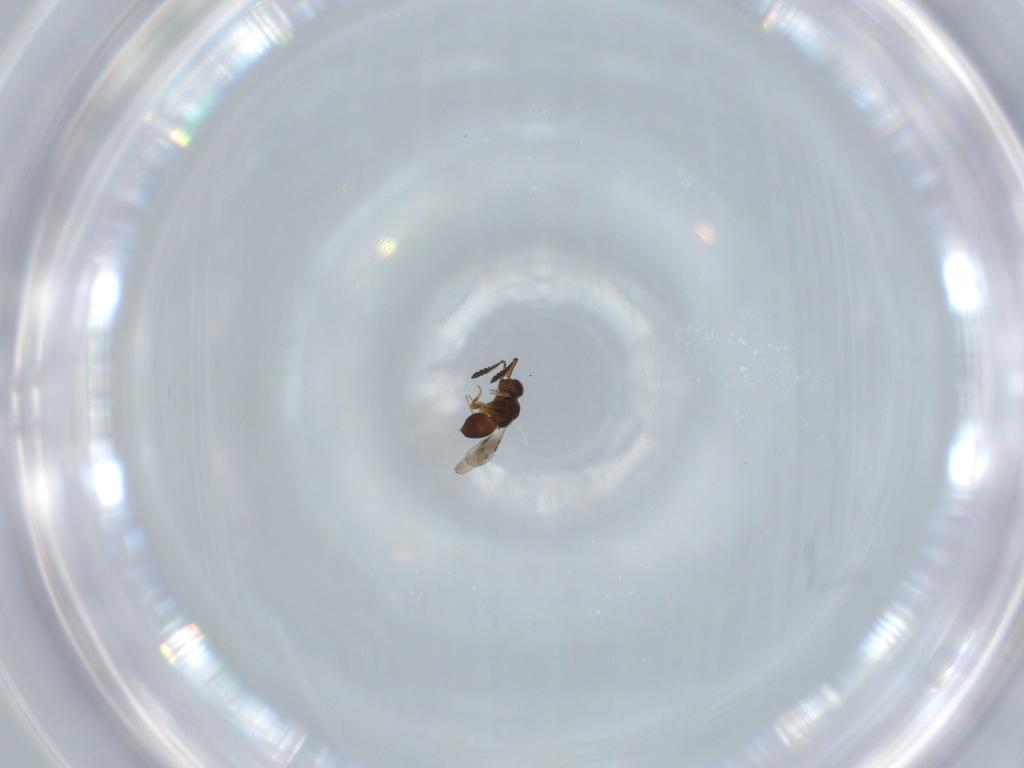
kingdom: Animalia
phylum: Arthropoda
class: Insecta
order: Hymenoptera
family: Ceraphronidae
